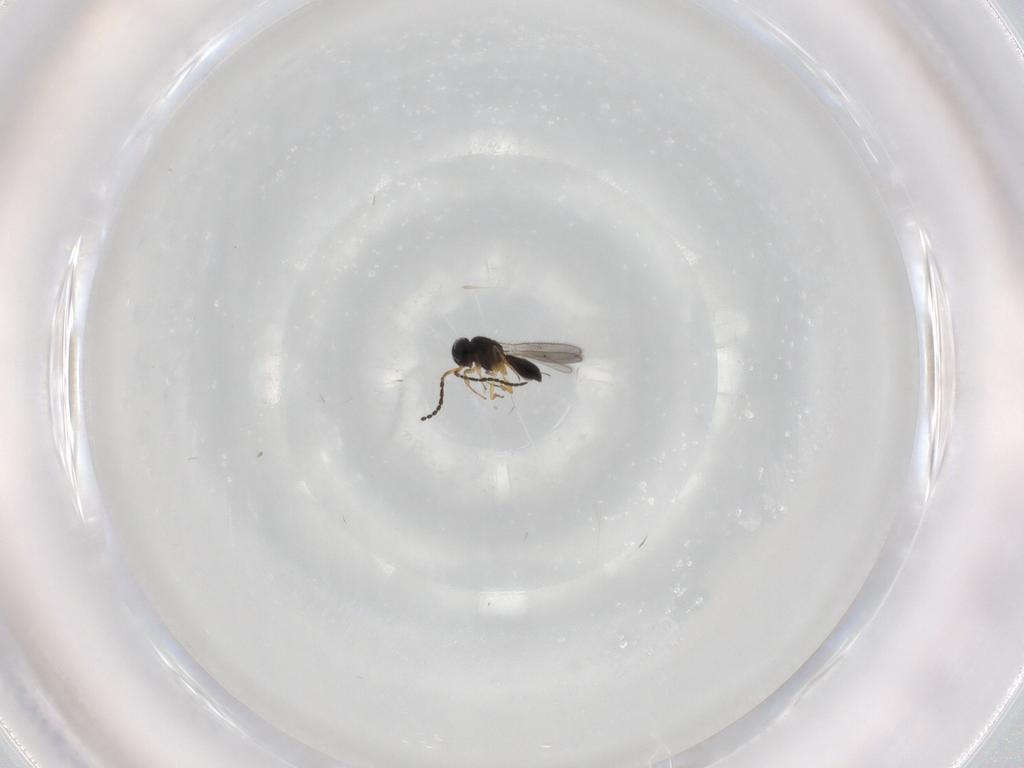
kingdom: Animalia
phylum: Arthropoda
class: Insecta
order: Hymenoptera
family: Scelionidae
